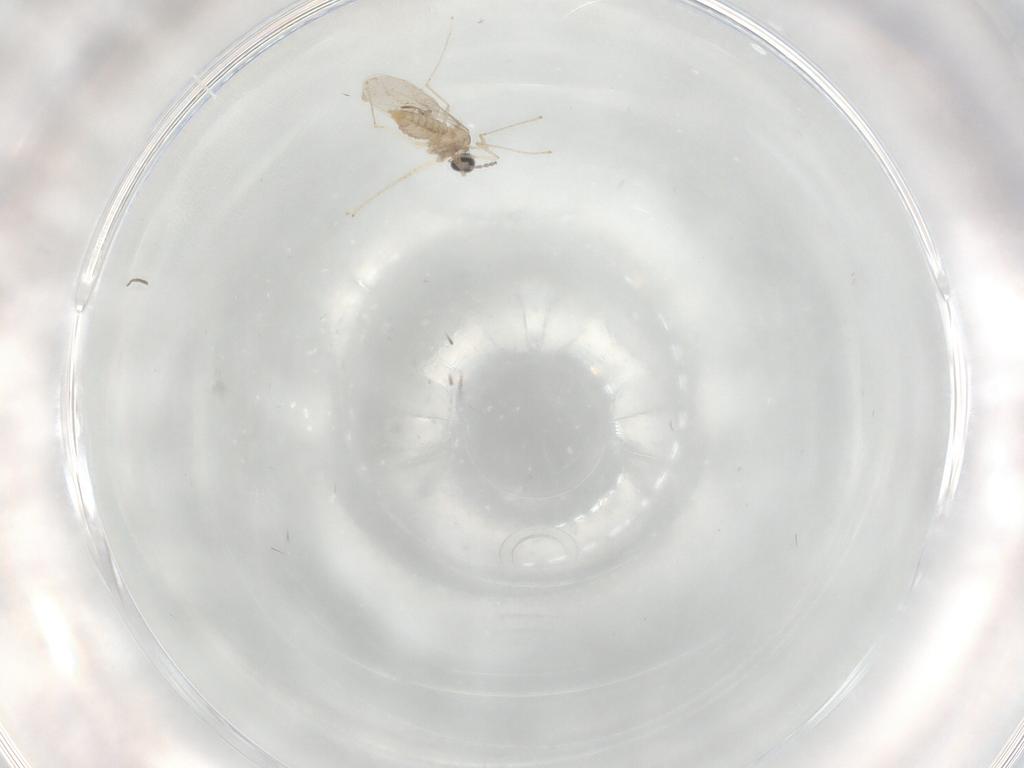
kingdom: Animalia
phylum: Arthropoda
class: Insecta
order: Diptera
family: Cecidomyiidae
